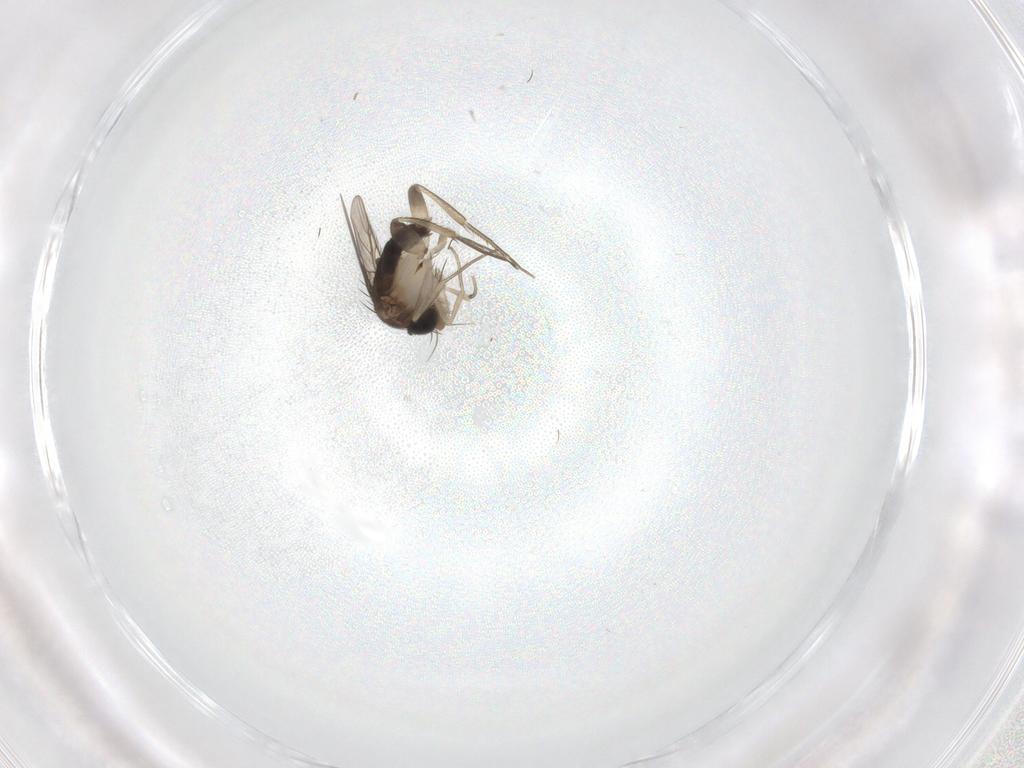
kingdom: Animalia
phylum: Arthropoda
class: Insecta
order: Diptera
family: Phoridae
